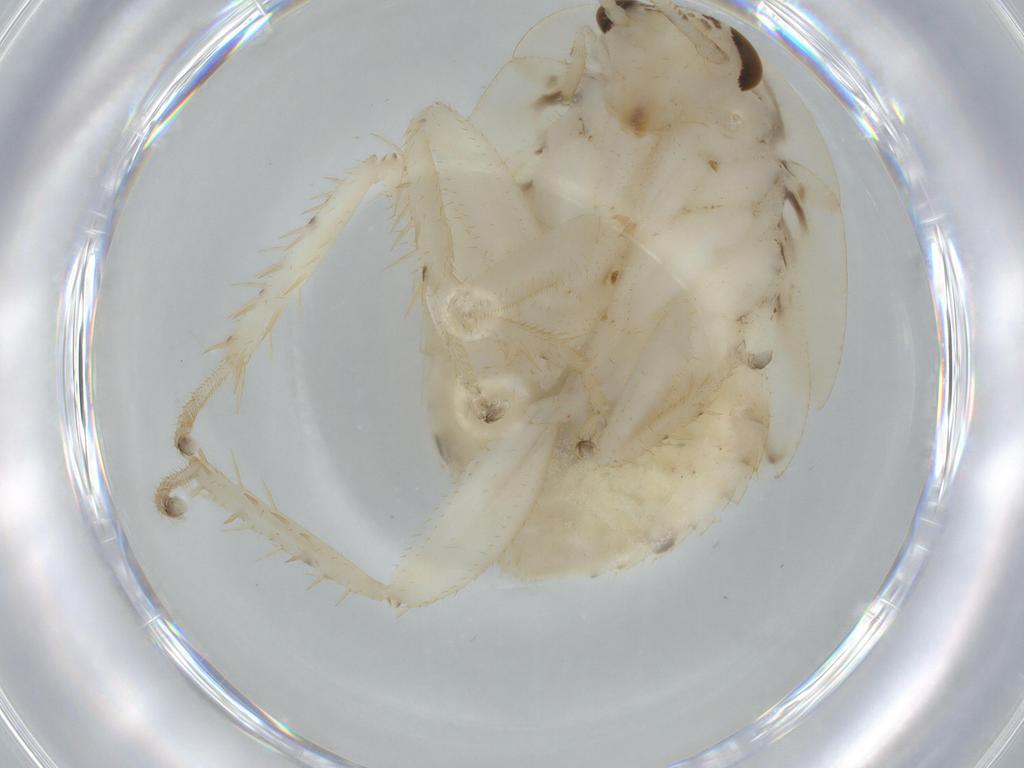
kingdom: Animalia
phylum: Arthropoda
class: Insecta
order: Blattodea
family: Ectobiidae
